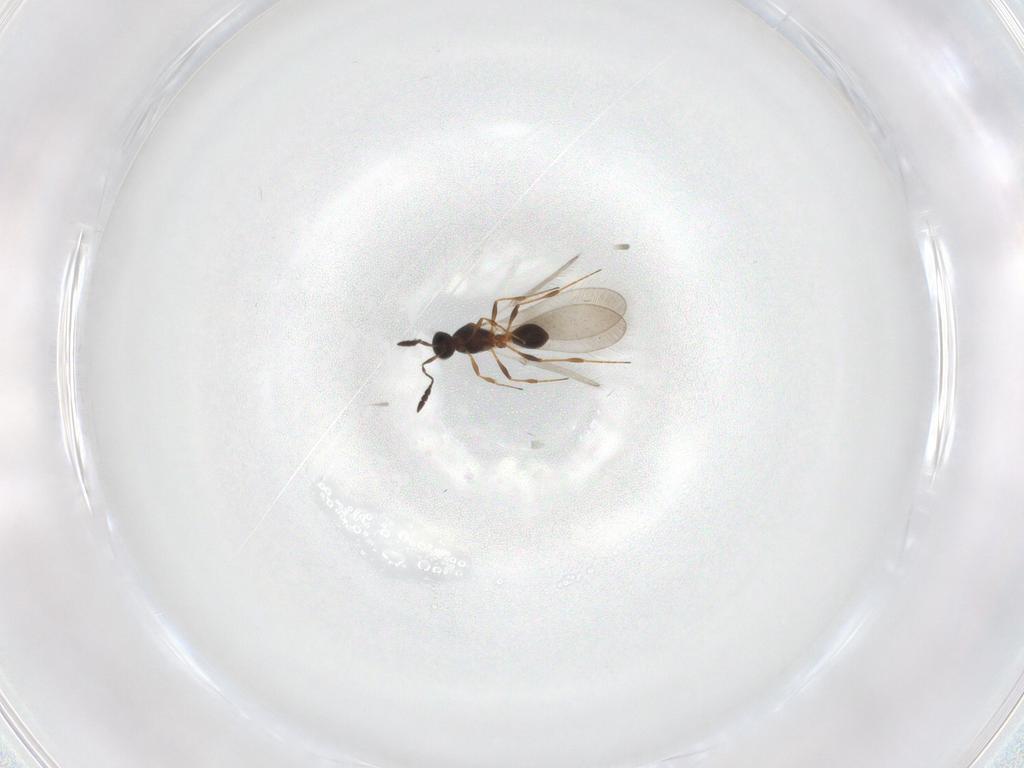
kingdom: Animalia
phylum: Arthropoda
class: Insecta
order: Hymenoptera
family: Platygastridae
